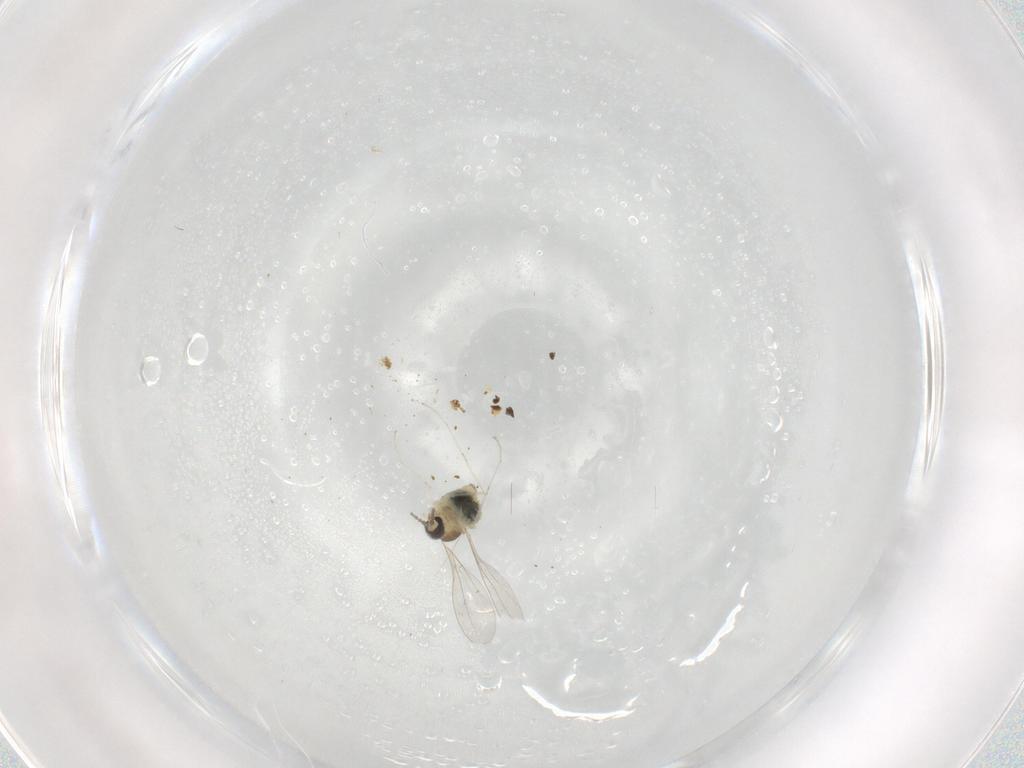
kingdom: Animalia
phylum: Arthropoda
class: Insecta
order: Diptera
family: Cecidomyiidae
